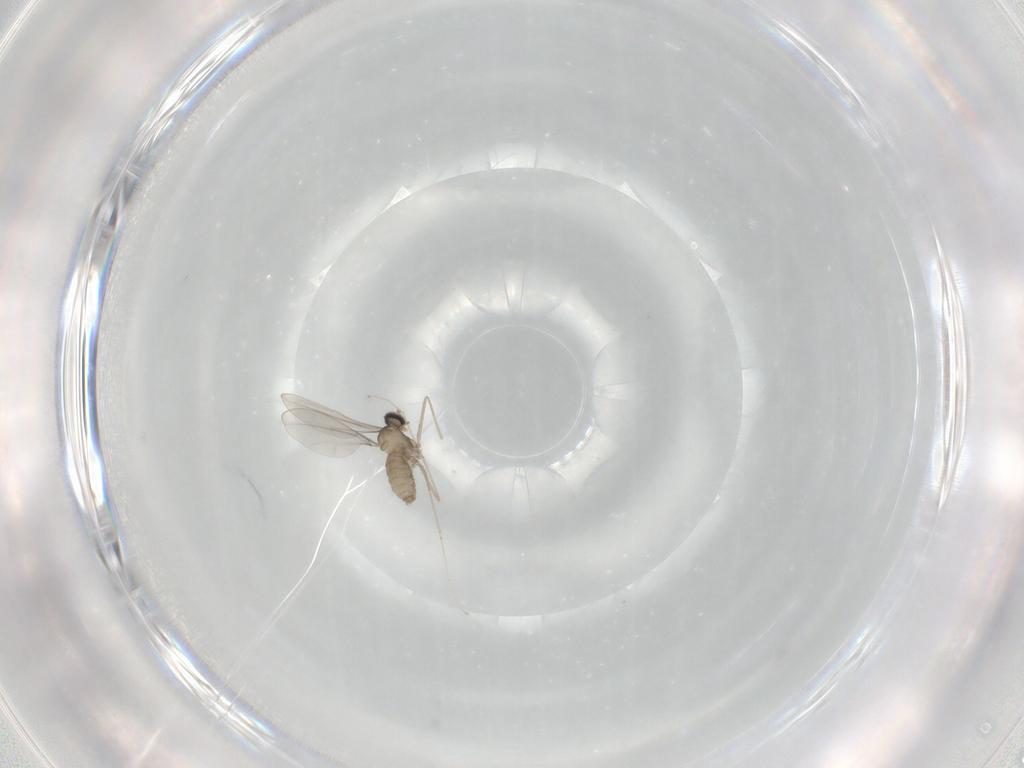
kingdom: Animalia
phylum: Arthropoda
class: Insecta
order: Diptera
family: Cecidomyiidae
